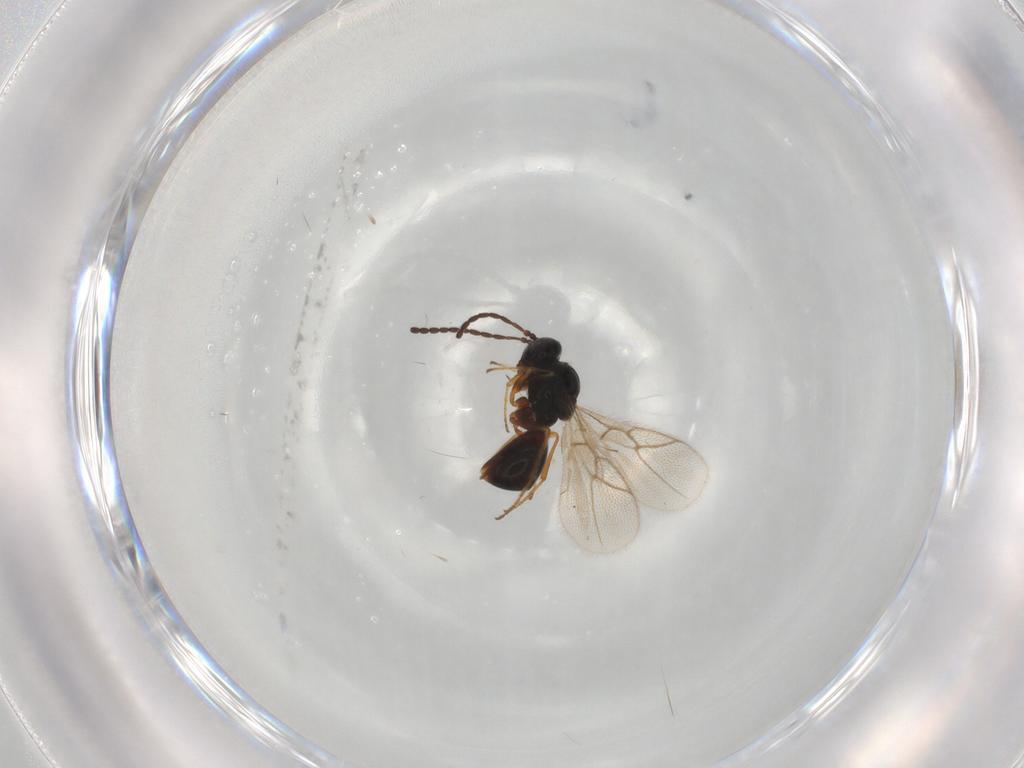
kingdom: Animalia
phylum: Arthropoda
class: Insecta
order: Hymenoptera
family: Figitidae
